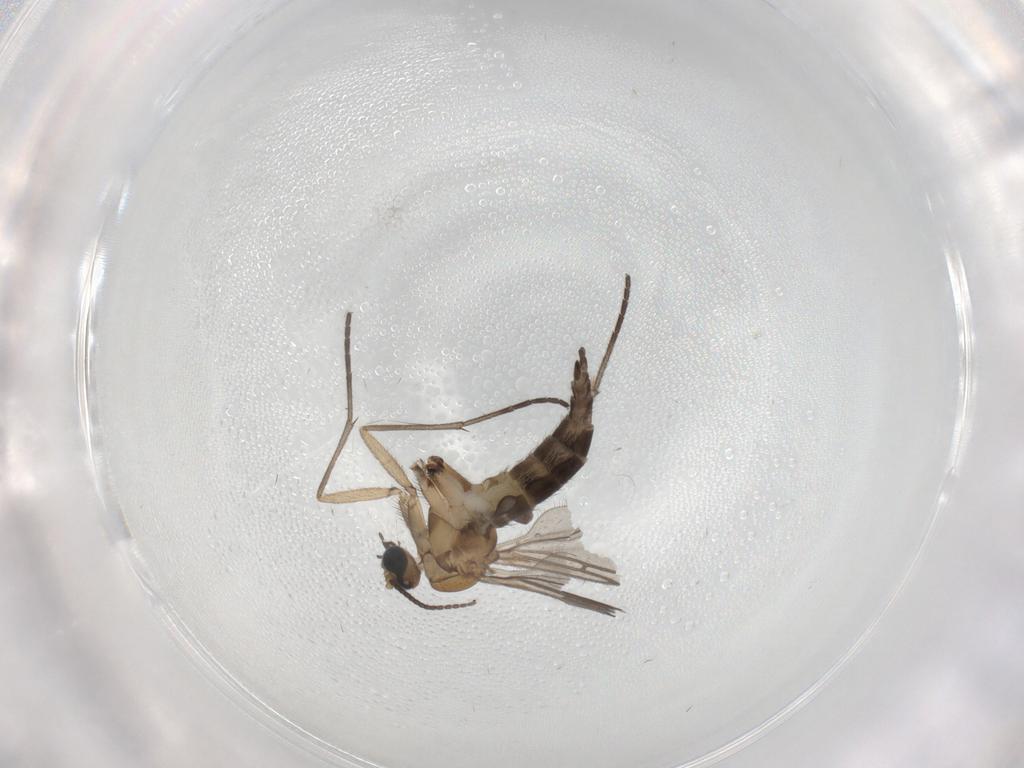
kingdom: Animalia
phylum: Arthropoda
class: Insecta
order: Diptera
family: Sciaridae
